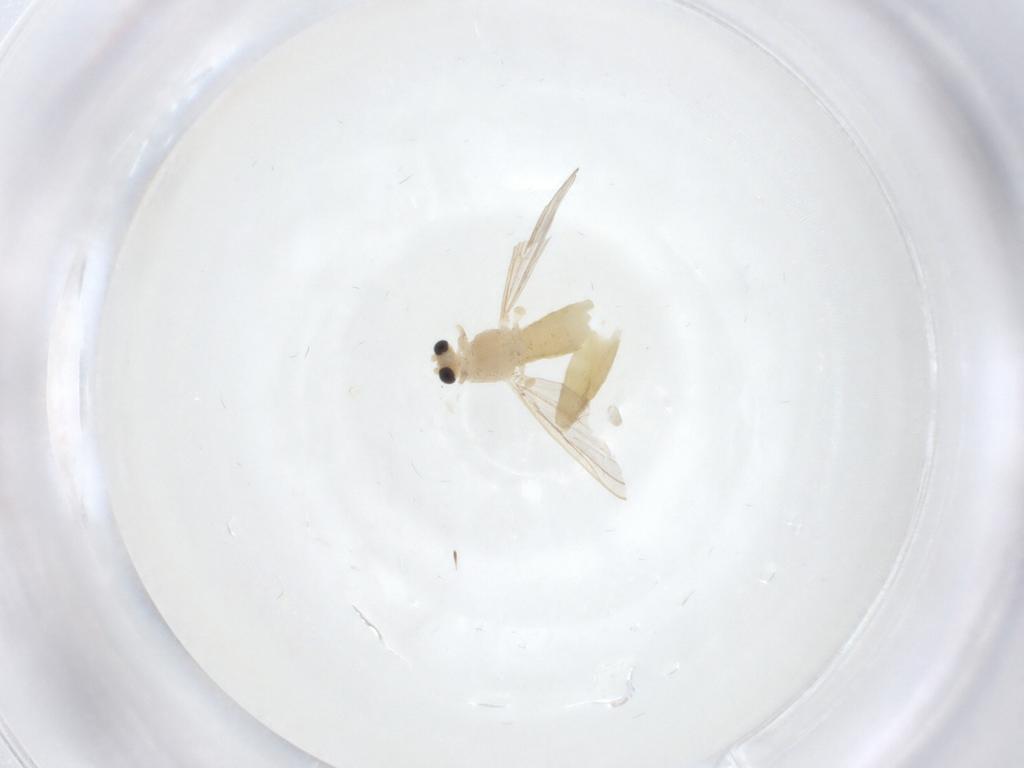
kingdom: Animalia
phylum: Arthropoda
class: Insecta
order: Diptera
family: Chironomidae
